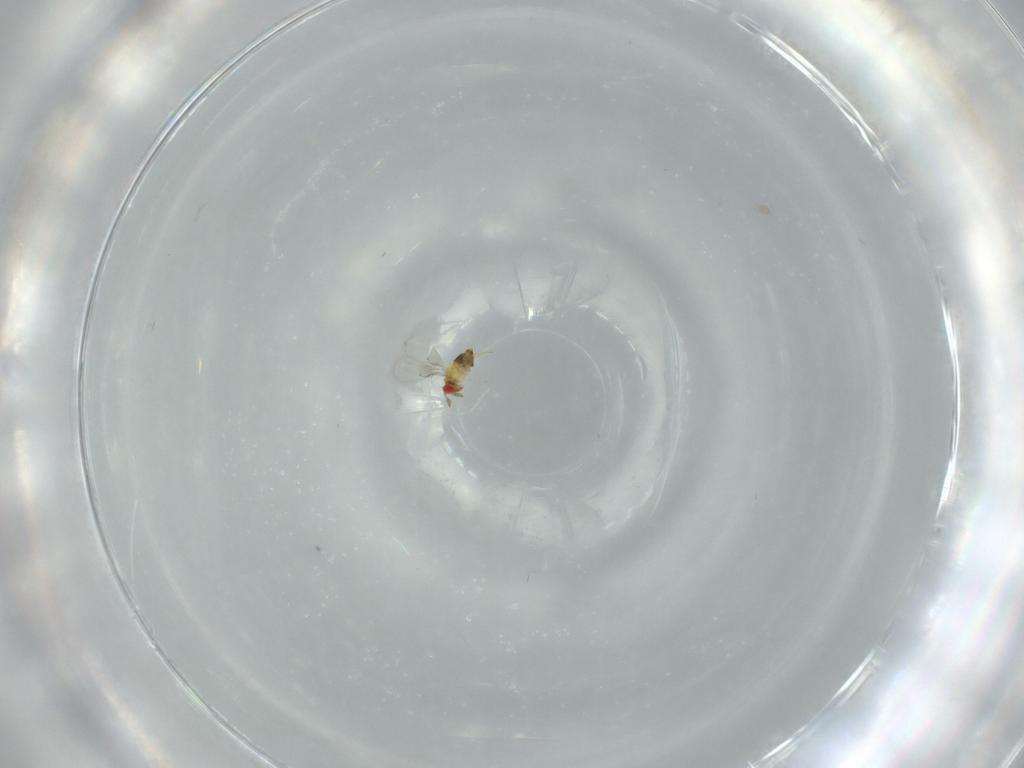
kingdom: Animalia
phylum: Arthropoda
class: Insecta
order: Hymenoptera
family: Trichogrammatidae
